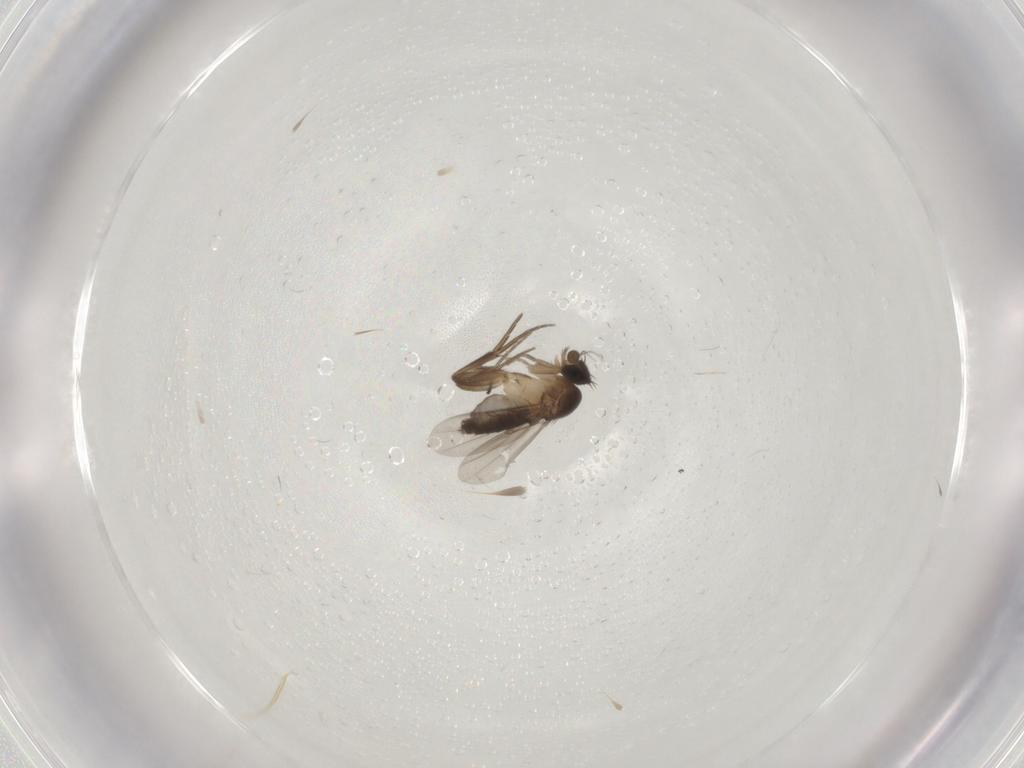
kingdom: Animalia
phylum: Arthropoda
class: Insecta
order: Diptera
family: Phoridae
